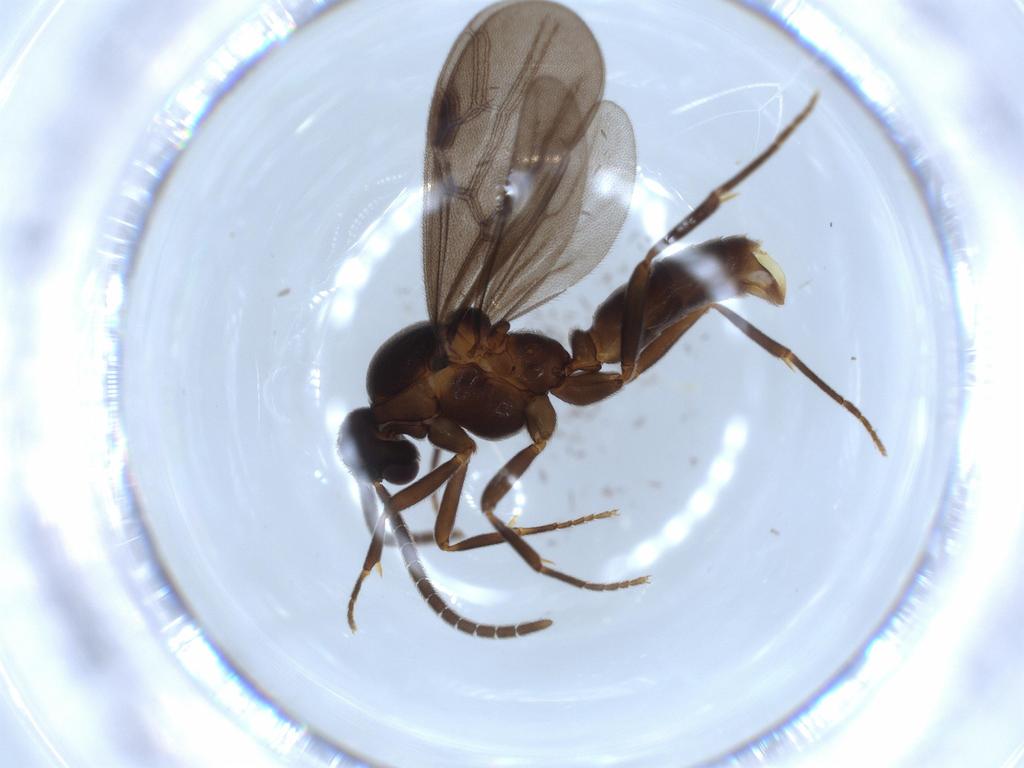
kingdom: Animalia
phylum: Arthropoda
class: Insecta
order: Hymenoptera
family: Formicidae
